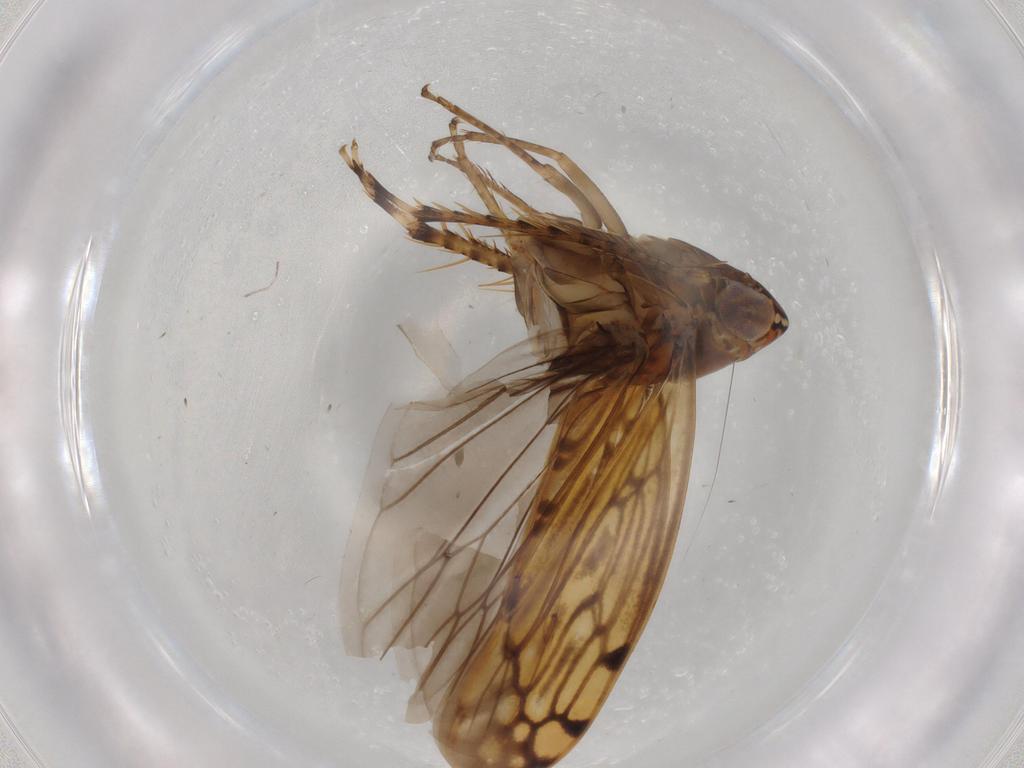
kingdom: Animalia
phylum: Arthropoda
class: Insecta
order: Hemiptera
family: Cicadellidae
